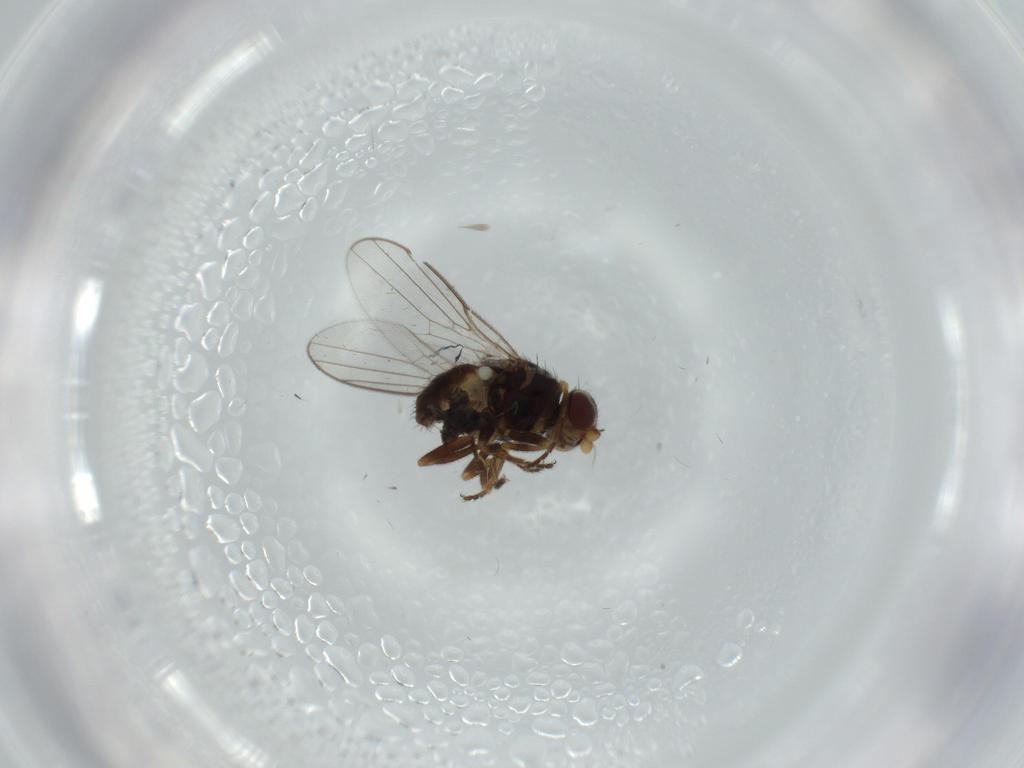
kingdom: Animalia
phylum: Arthropoda
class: Insecta
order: Diptera
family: Chloropidae
